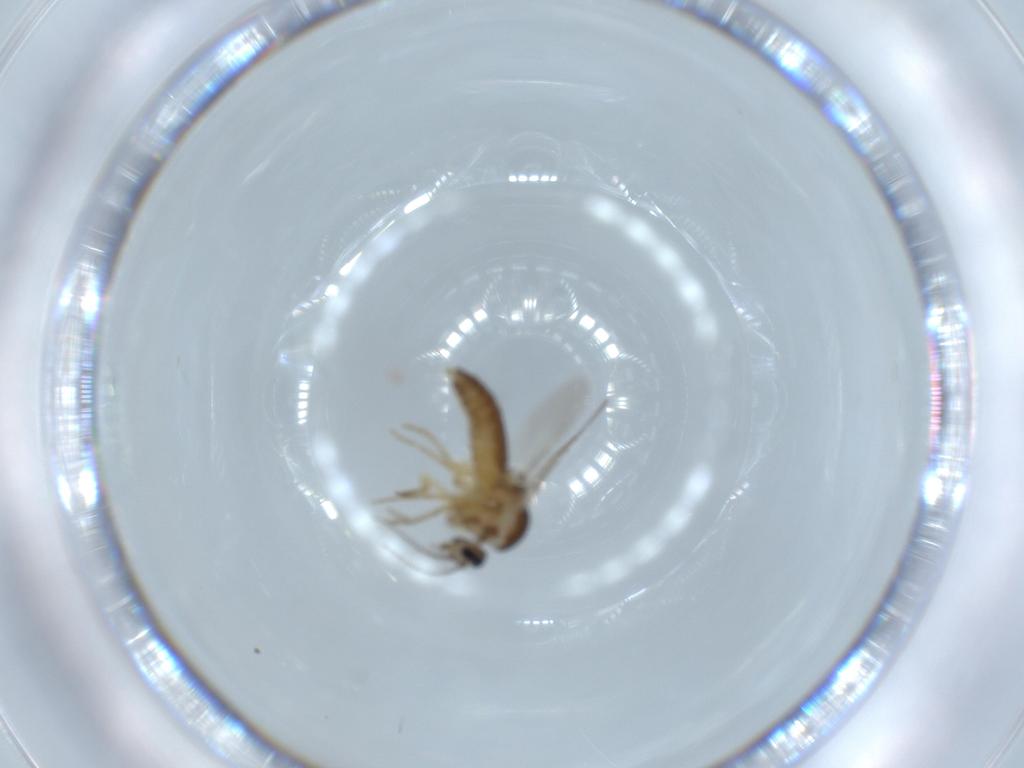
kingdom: Animalia
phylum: Arthropoda
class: Insecta
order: Diptera
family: Ceratopogonidae
